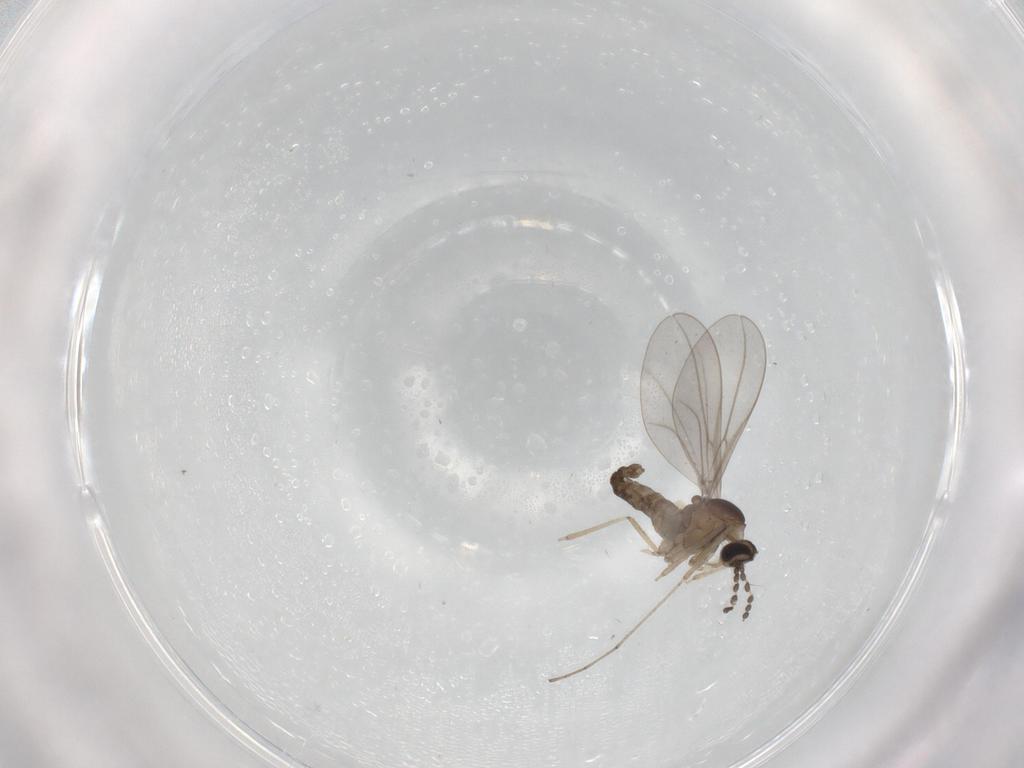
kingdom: Animalia
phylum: Arthropoda
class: Insecta
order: Diptera
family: Cecidomyiidae
